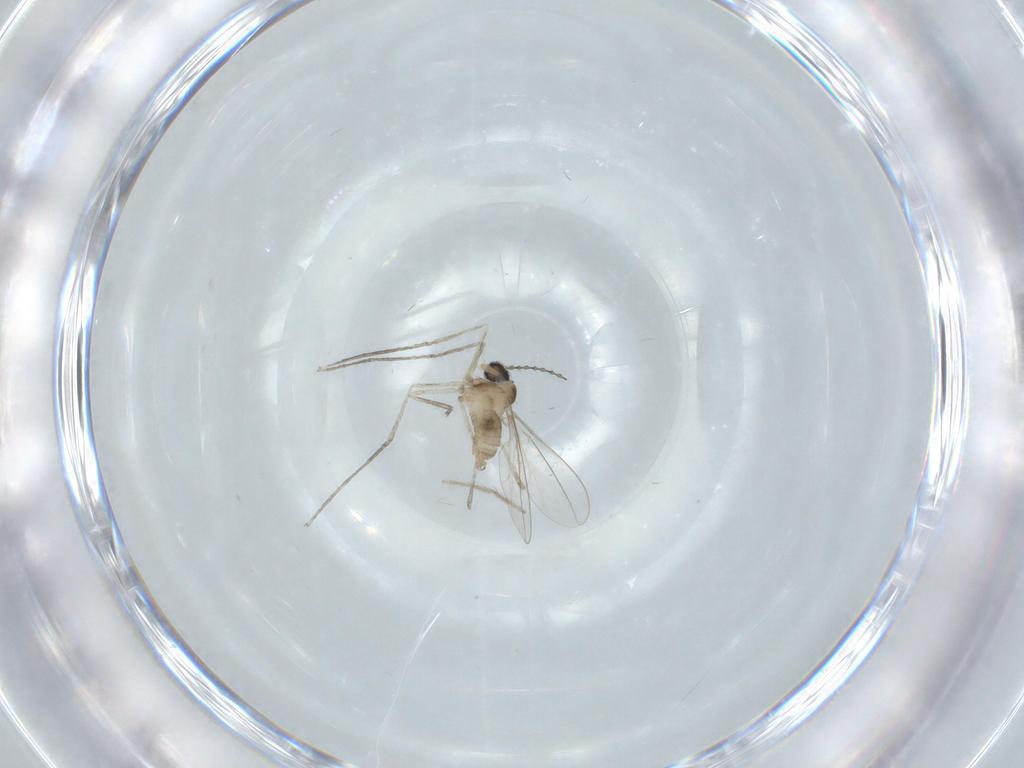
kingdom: Animalia
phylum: Arthropoda
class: Insecta
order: Diptera
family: Cecidomyiidae
